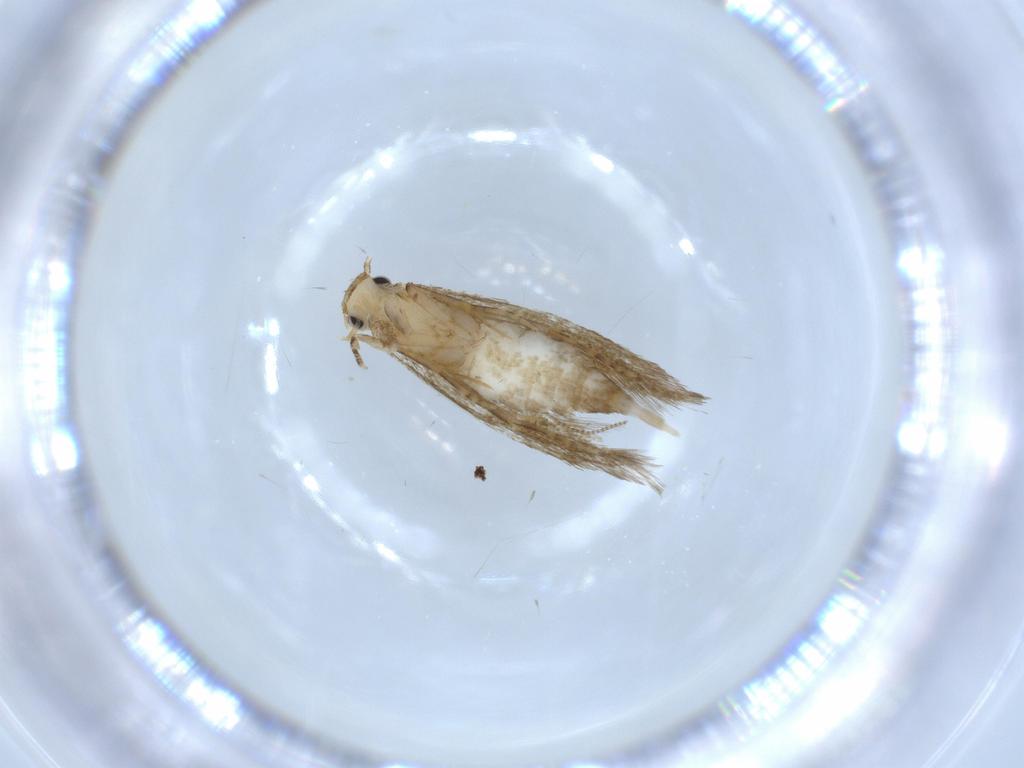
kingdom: Animalia
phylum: Arthropoda
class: Insecta
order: Lepidoptera
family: Tineidae
